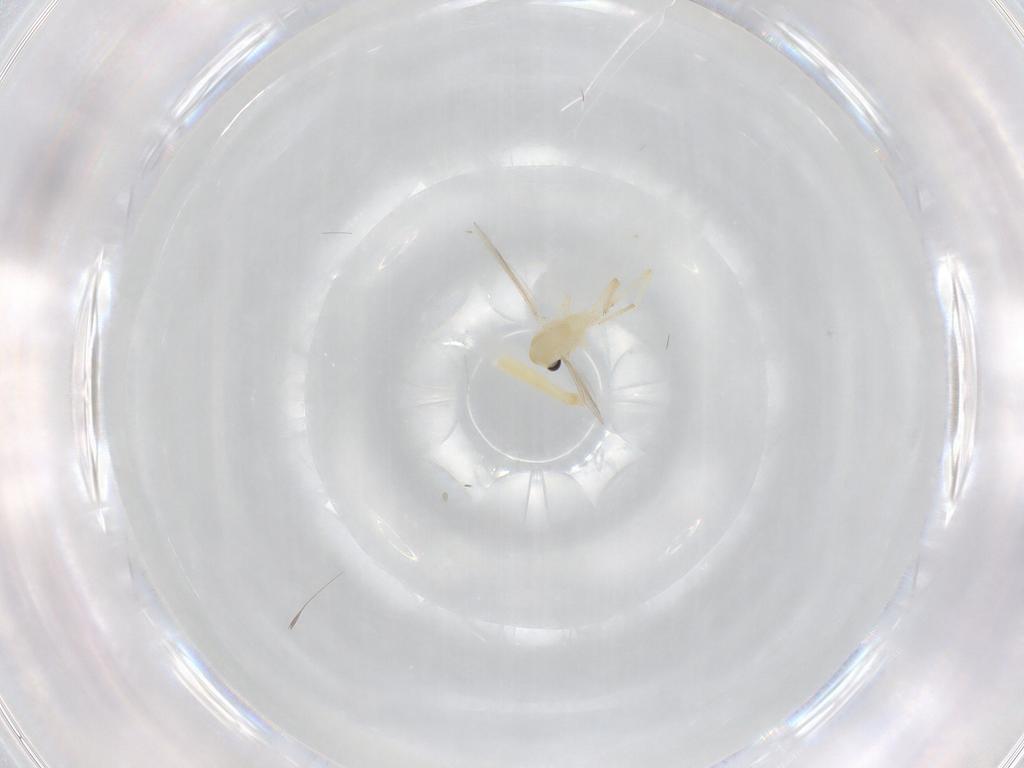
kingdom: Animalia
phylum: Arthropoda
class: Insecta
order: Diptera
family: Chironomidae
